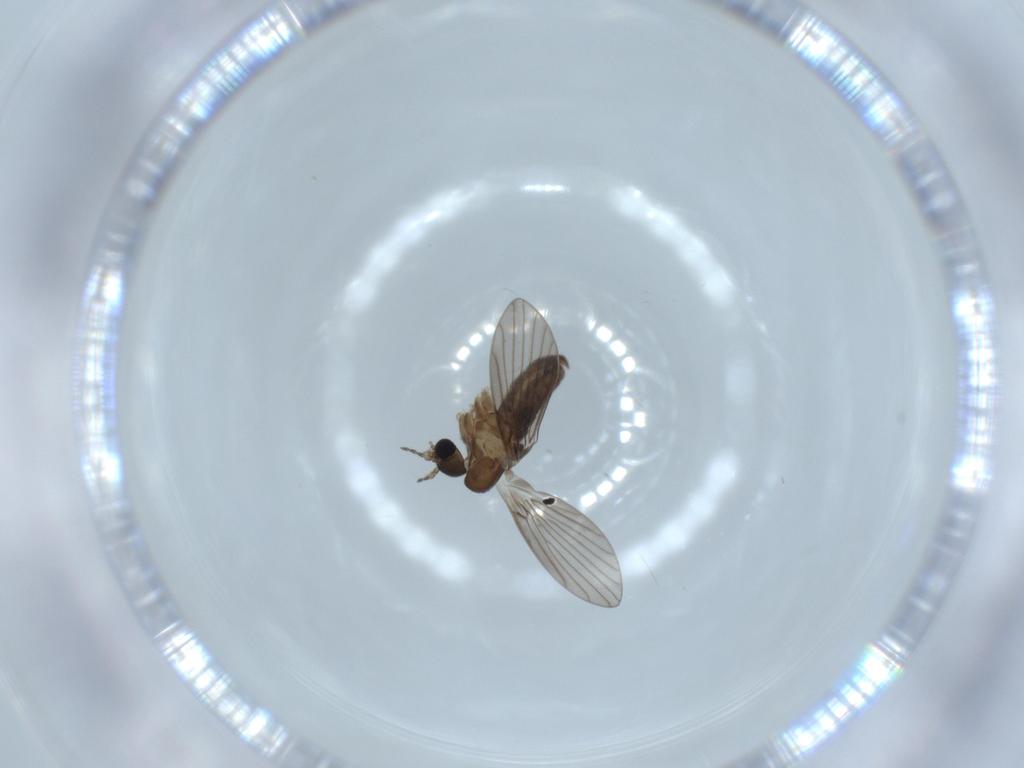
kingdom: Animalia
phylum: Arthropoda
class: Insecta
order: Diptera
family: Psychodidae
